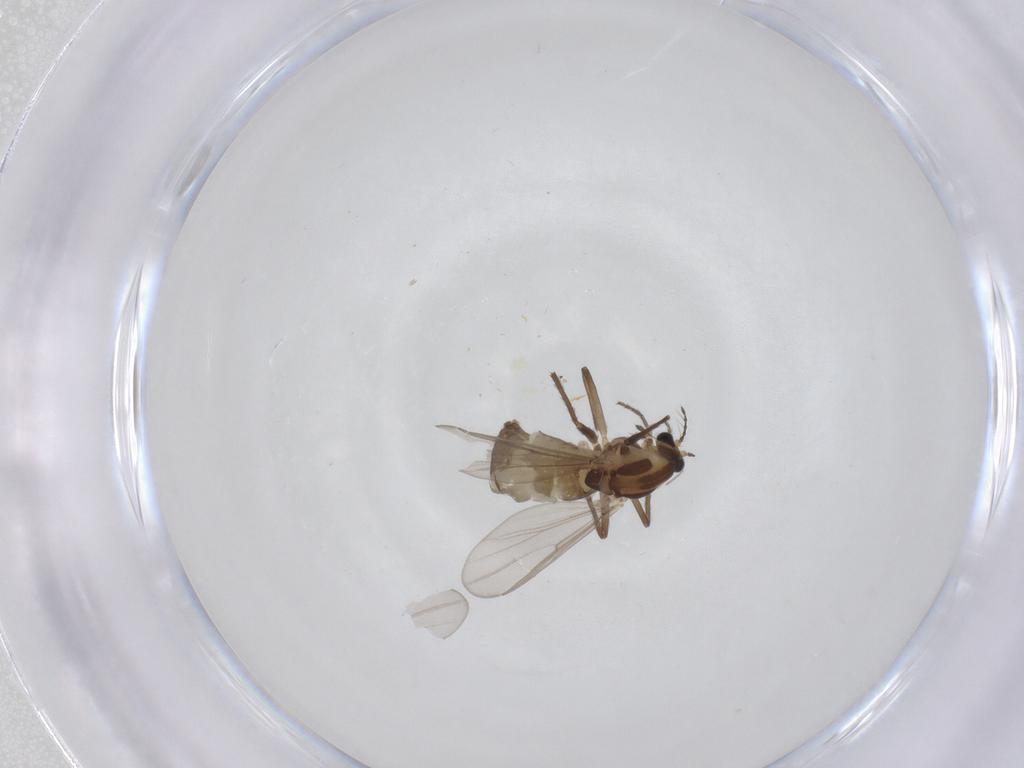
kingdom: Animalia
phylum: Arthropoda
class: Insecta
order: Diptera
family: Chironomidae
